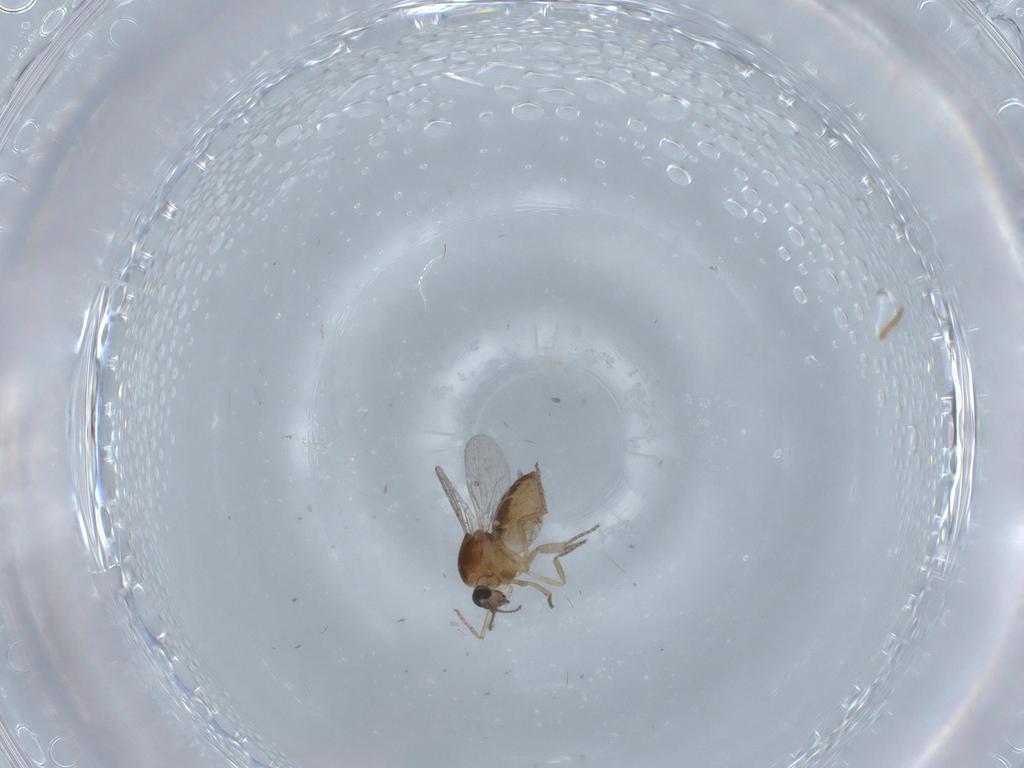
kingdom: Animalia
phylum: Arthropoda
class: Insecta
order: Diptera
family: Ceratopogonidae
